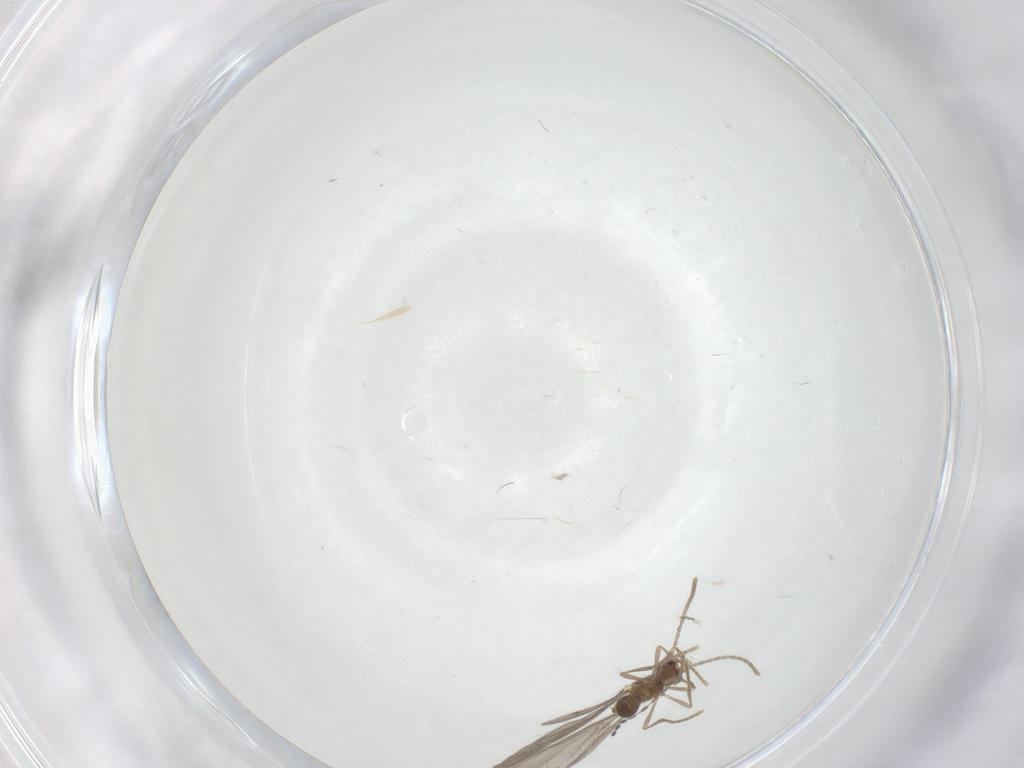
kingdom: Animalia
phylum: Arthropoda
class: Insecta
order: Hymenoptera
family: Formicidae
